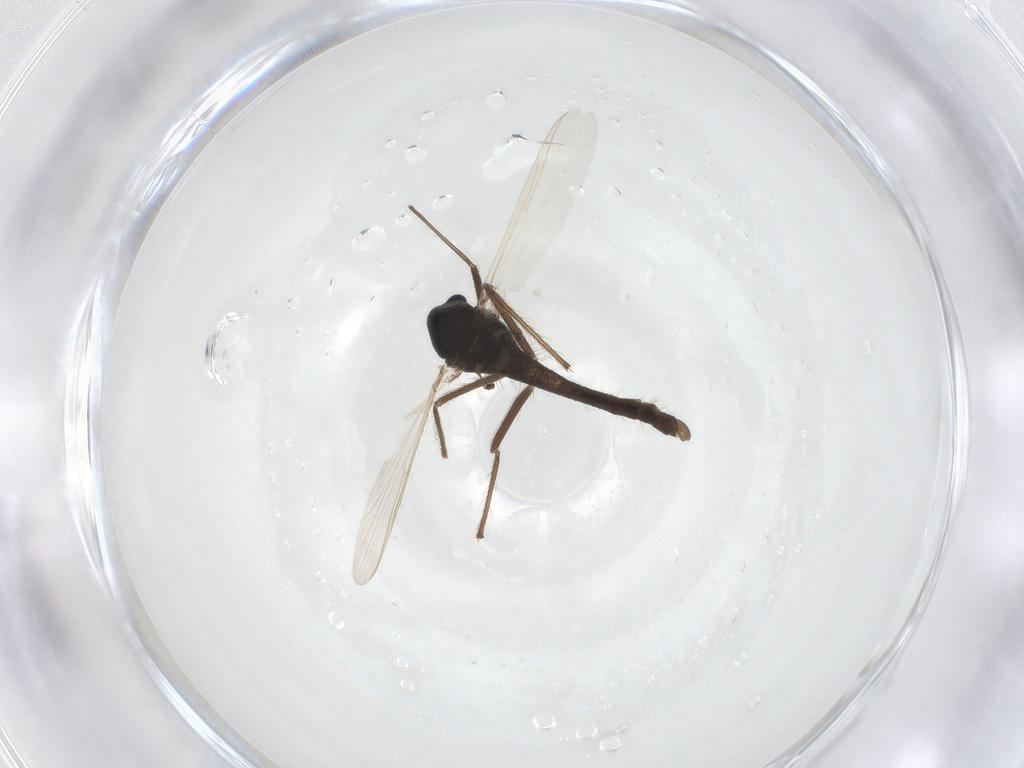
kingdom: Animalia
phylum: Arthropoda
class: Insecta
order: Diptera
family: Chironomidae
